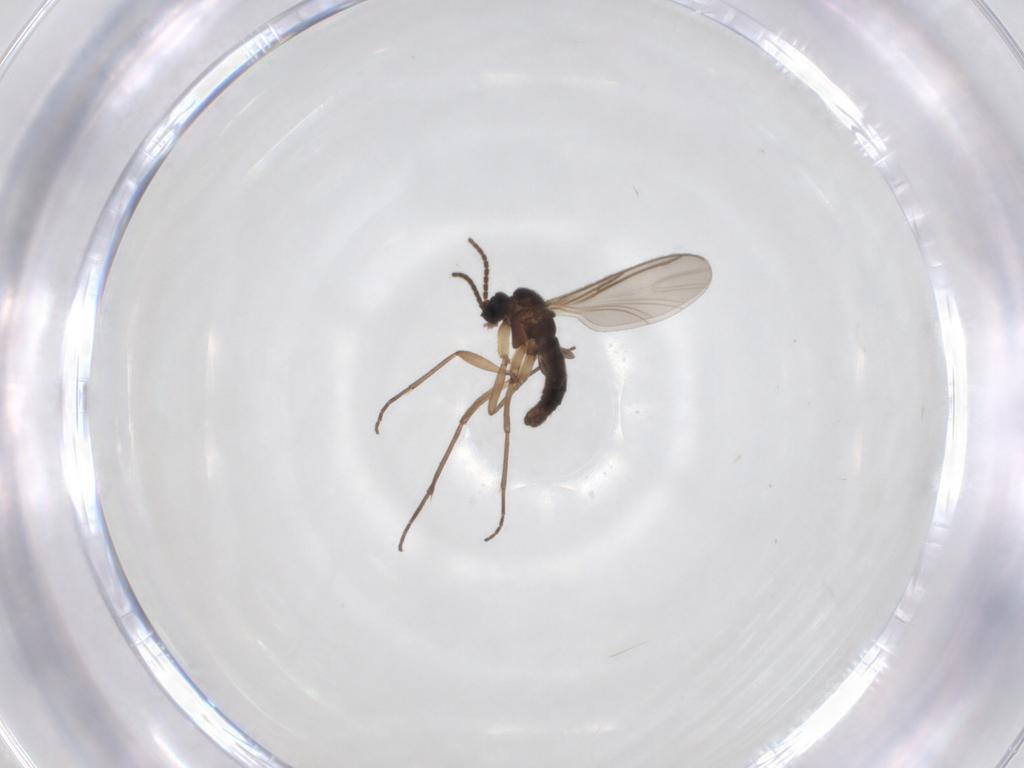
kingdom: Animalia
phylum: Arthropoda
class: Insecta
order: Diptera
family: Sciaridae
